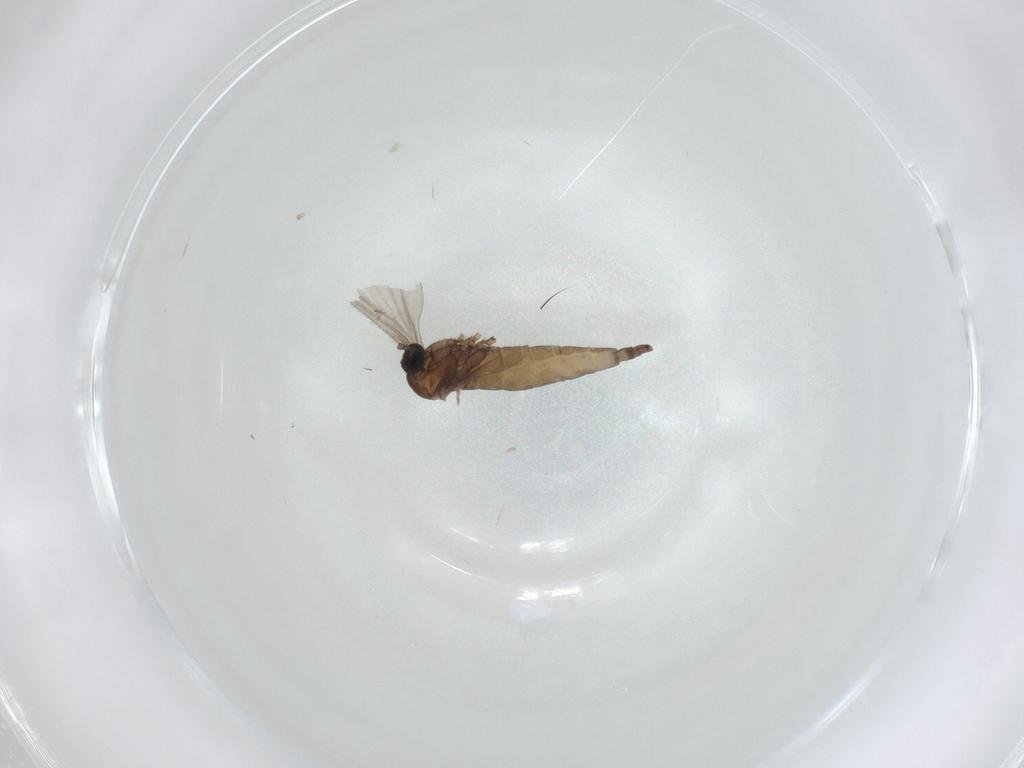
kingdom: Animalia
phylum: Arthropoda
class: Insecta
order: Diptera
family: Sciaridae
